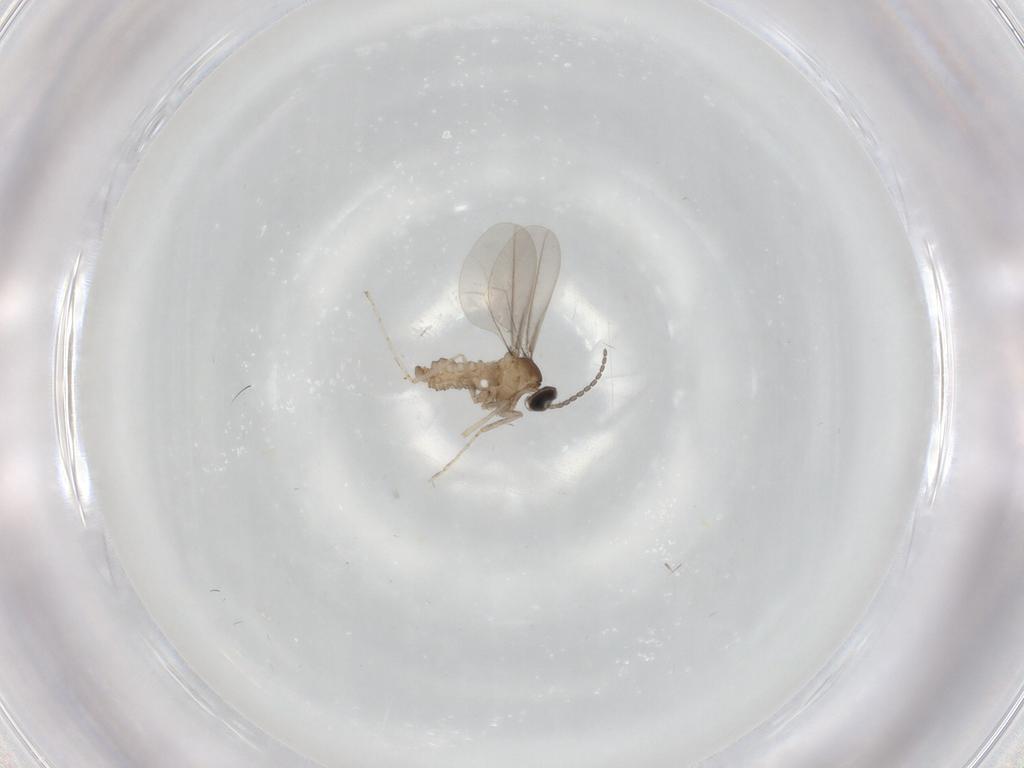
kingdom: Animalia
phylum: Arthropoda
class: Insecta
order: Diptera
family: Cecidomyiidae
